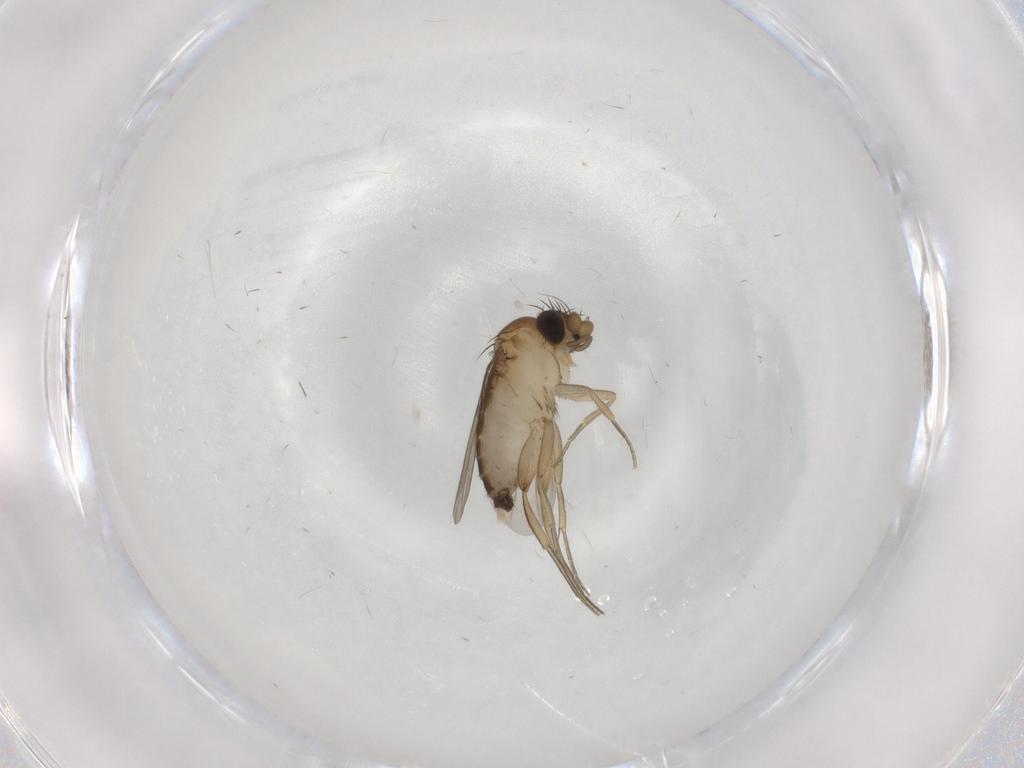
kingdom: Animalia
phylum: Arthropoda
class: Insecta
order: Diptera
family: Phoridae
